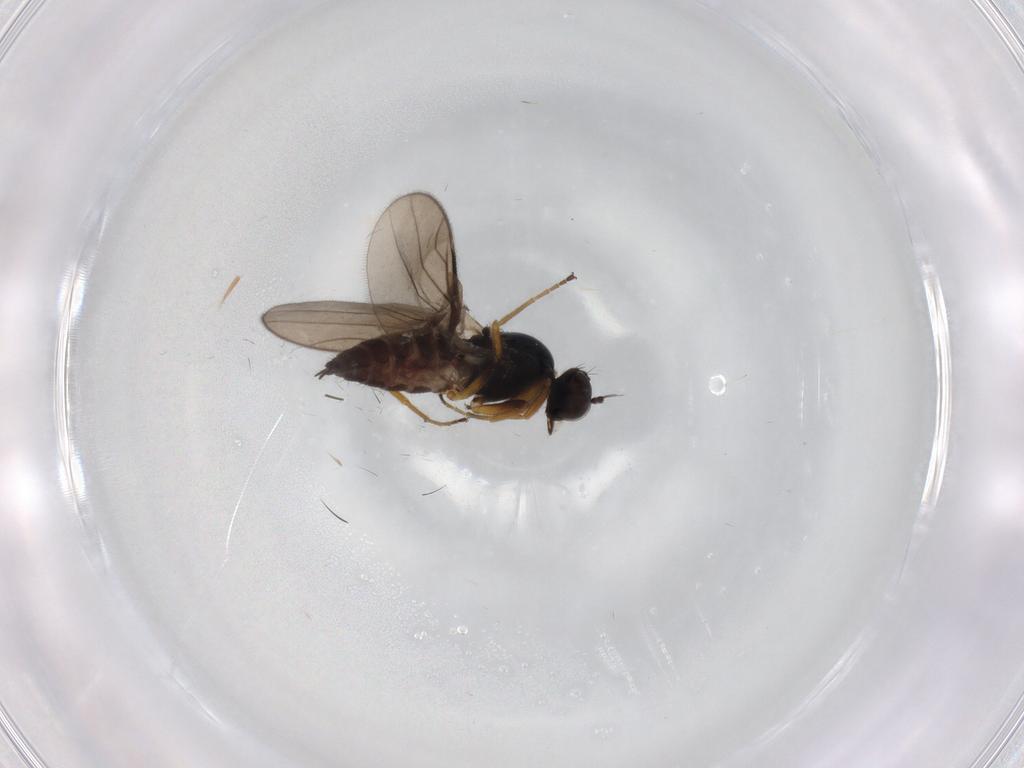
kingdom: Animalia
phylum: Arthropoda
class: Insecta
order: Diptera
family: Hybotidae
